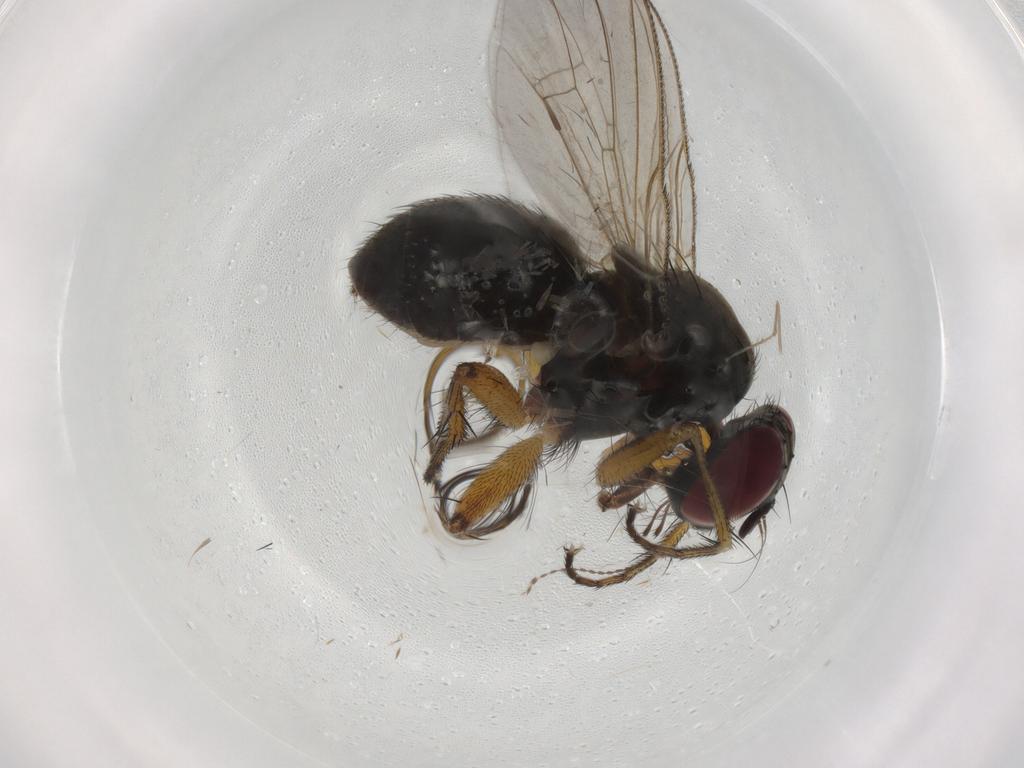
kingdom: Animalia
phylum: Arthropoda
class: Insecta
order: Diptera
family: Muscidae
